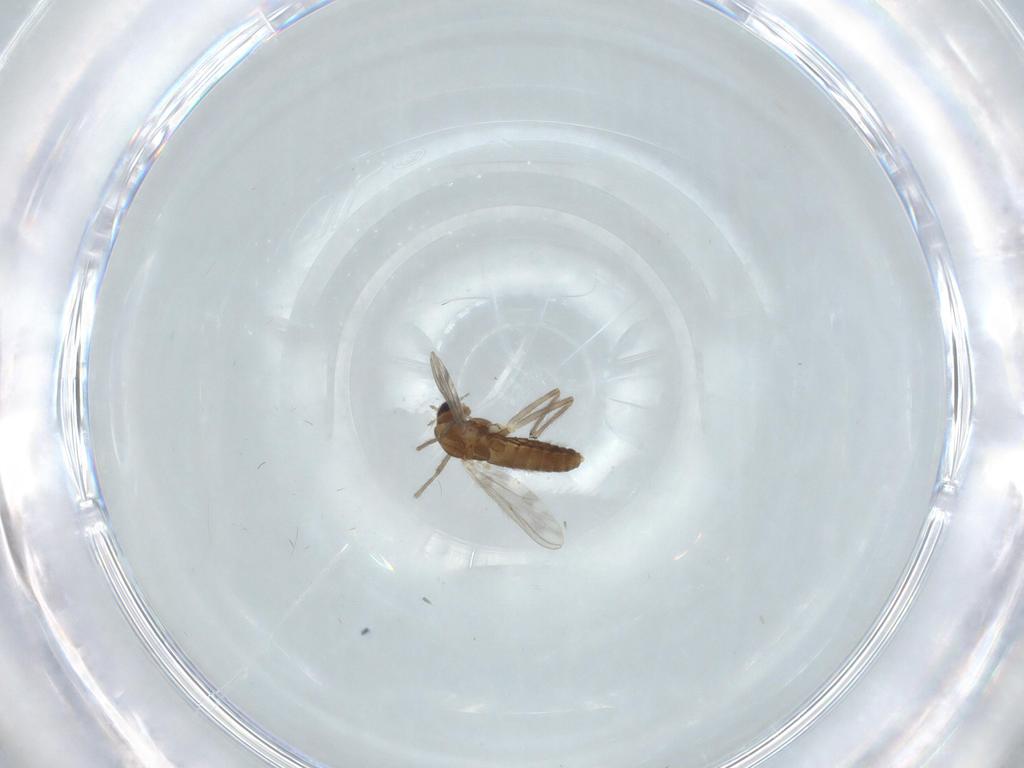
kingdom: Animalia
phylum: Arthropoda
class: Insecta
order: Diptera
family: Chironomidae
